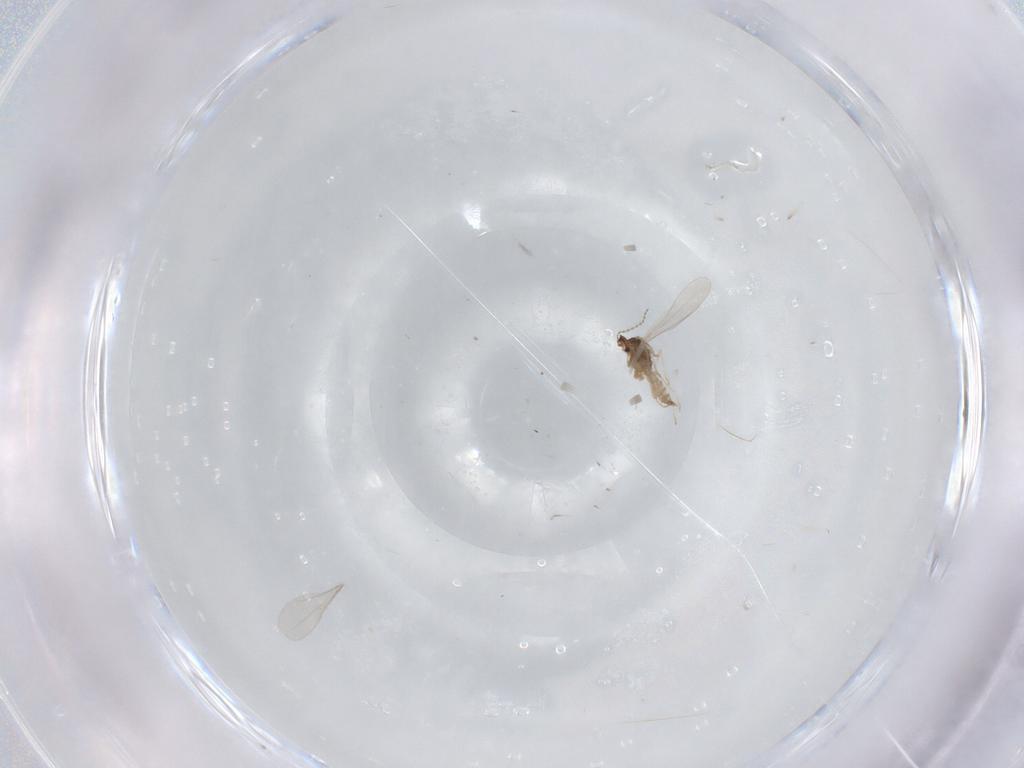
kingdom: Animalia
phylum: Arthropoda
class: Insecta
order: Diptera
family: Cecidomyiidae
